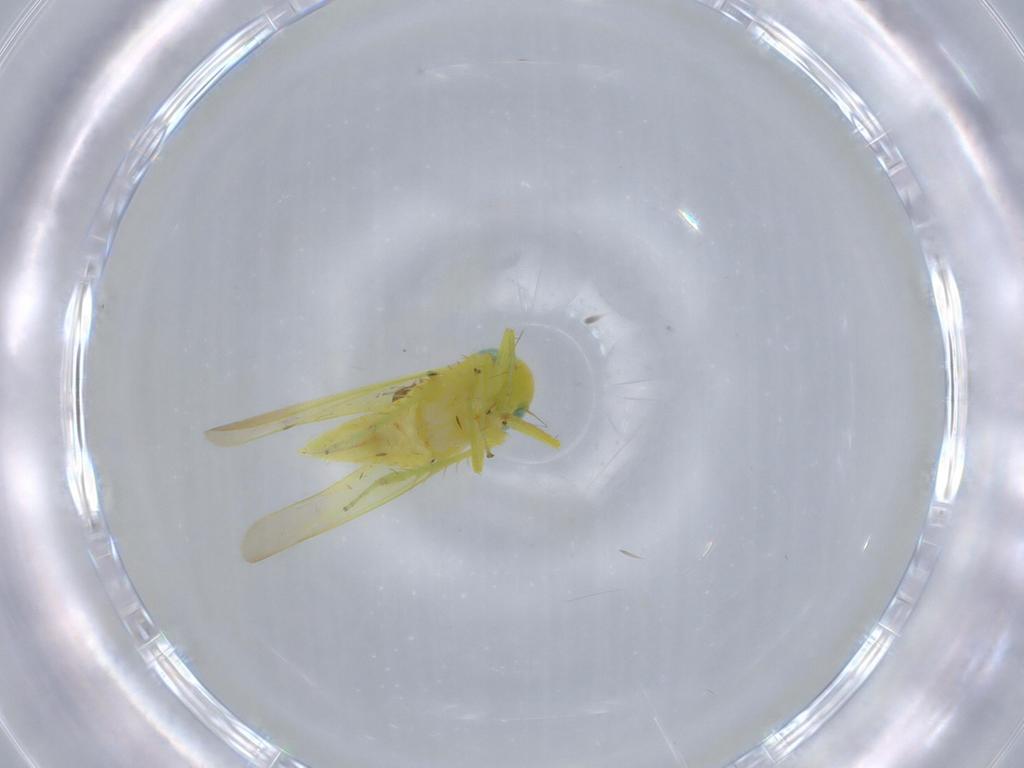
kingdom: Animalia
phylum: Arthropoda
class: Insecta
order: Hemiptera
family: Cicadellidae
